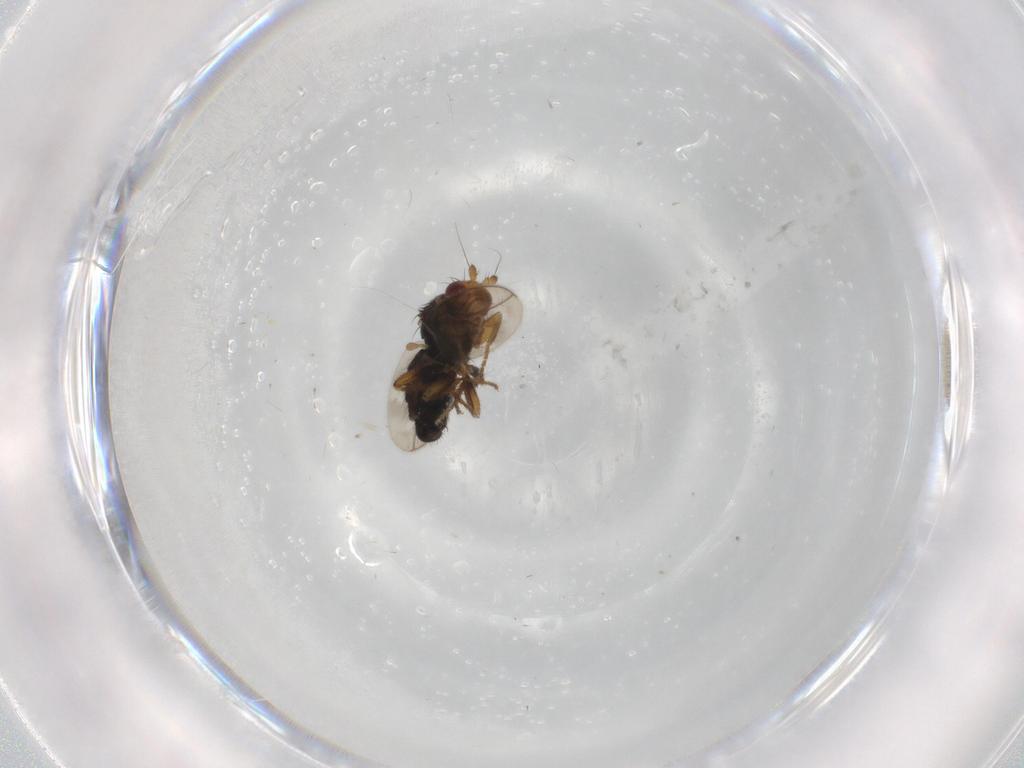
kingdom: Animalia
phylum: Arthropoda
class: Insecta
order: Diptera
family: Sphaeroceridae
